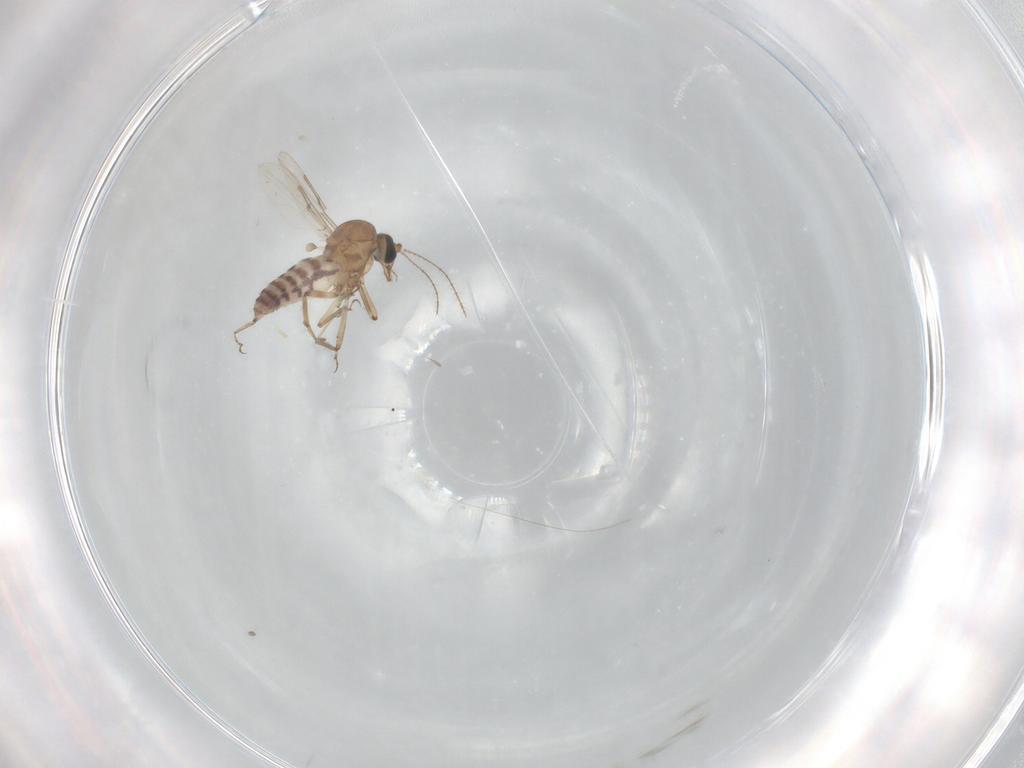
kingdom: Animalia
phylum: Arthropoda
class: Insecta
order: Diptera
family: Ceratopogonidae
